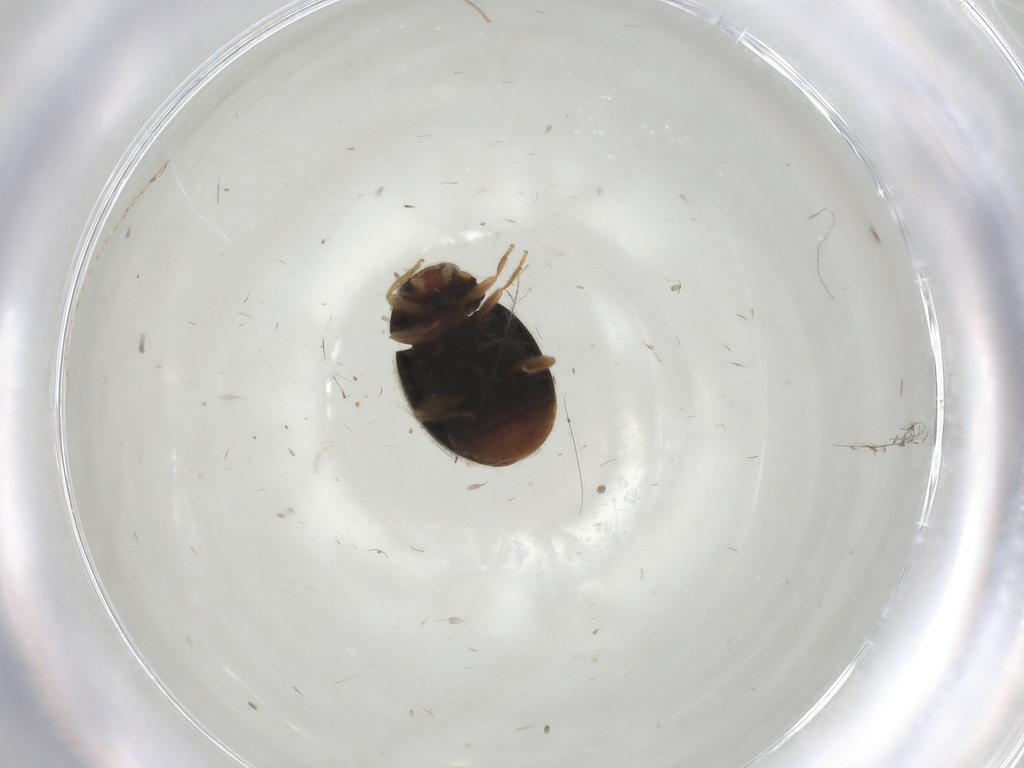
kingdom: Animalia
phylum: Arthropoda
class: Insecta
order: Coleoptera
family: Coccinellidae
